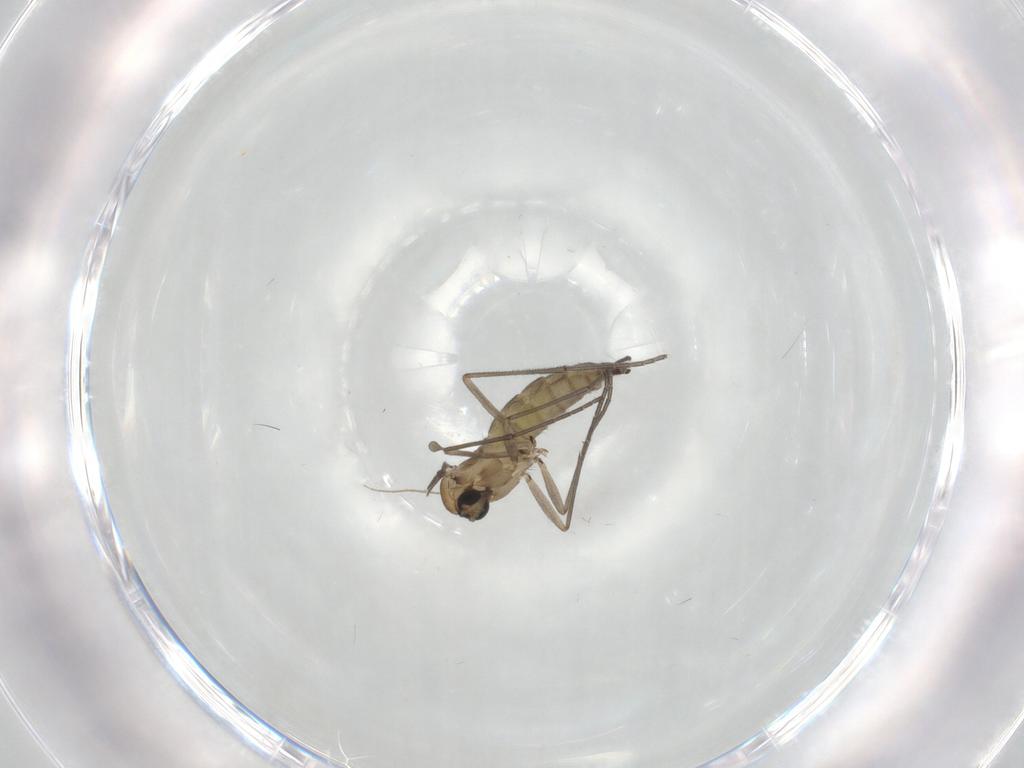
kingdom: Animalia
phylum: Arthropoda
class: Insecta
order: Diptera
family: Sciaridae
